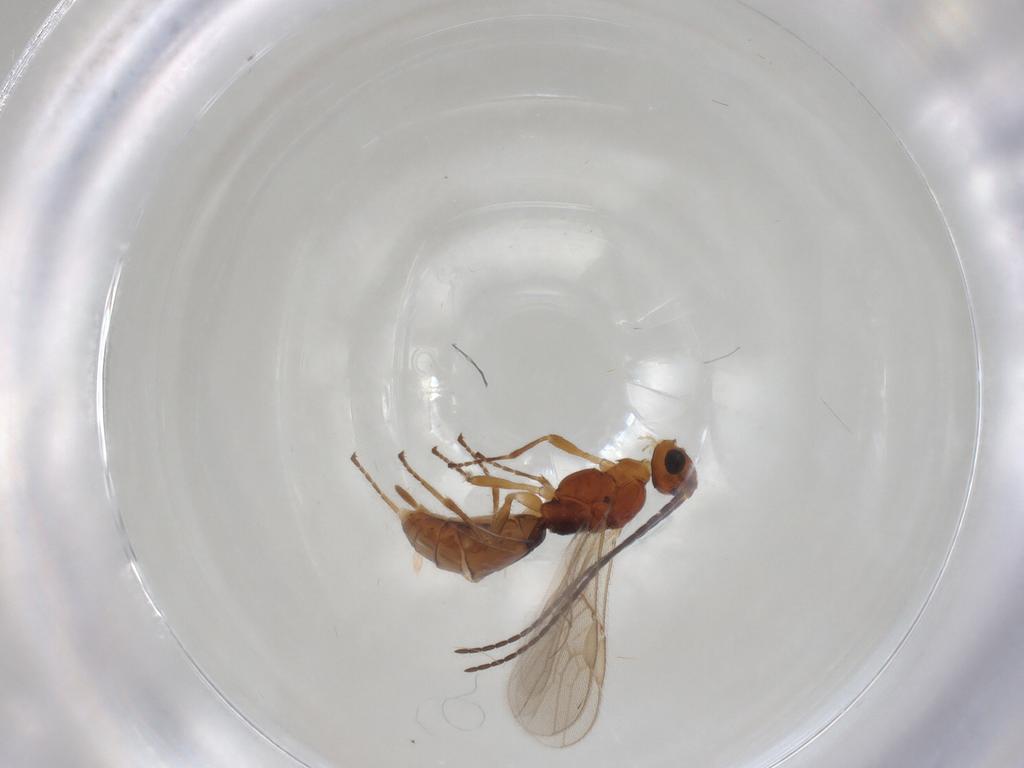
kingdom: Animalia
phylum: Arthropoda
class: Insecta
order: Hymenoptera
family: Braconidae
